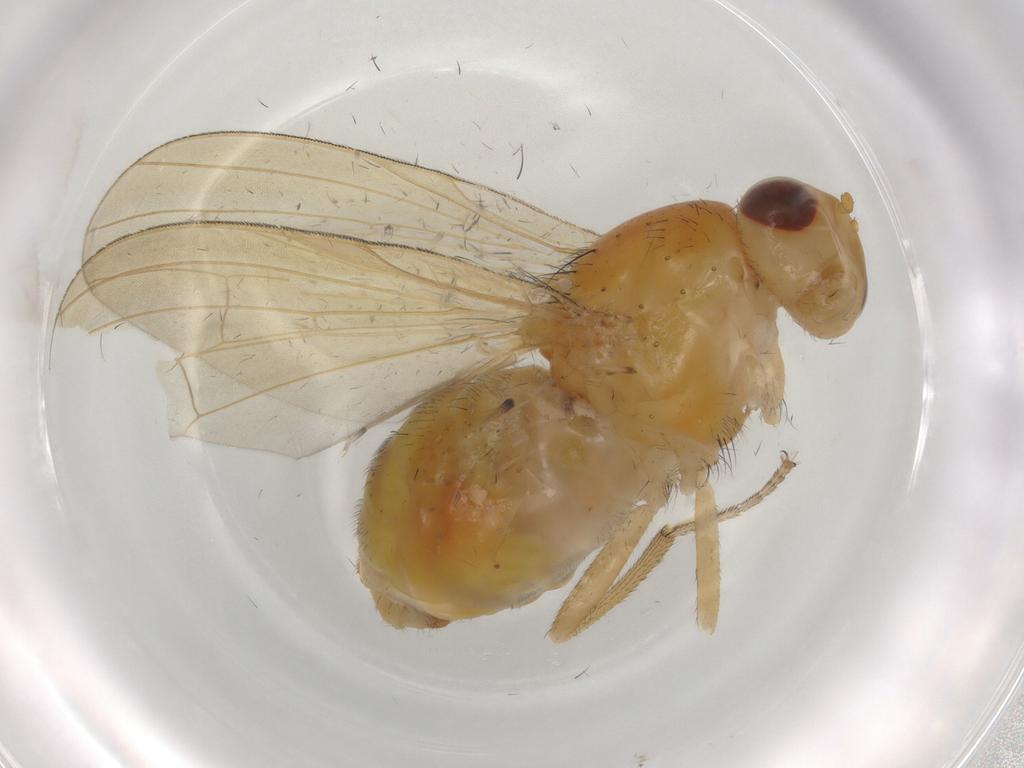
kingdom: Animalia
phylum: Arthropoda
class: Insecta
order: Diptera
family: Lauxaniidae
